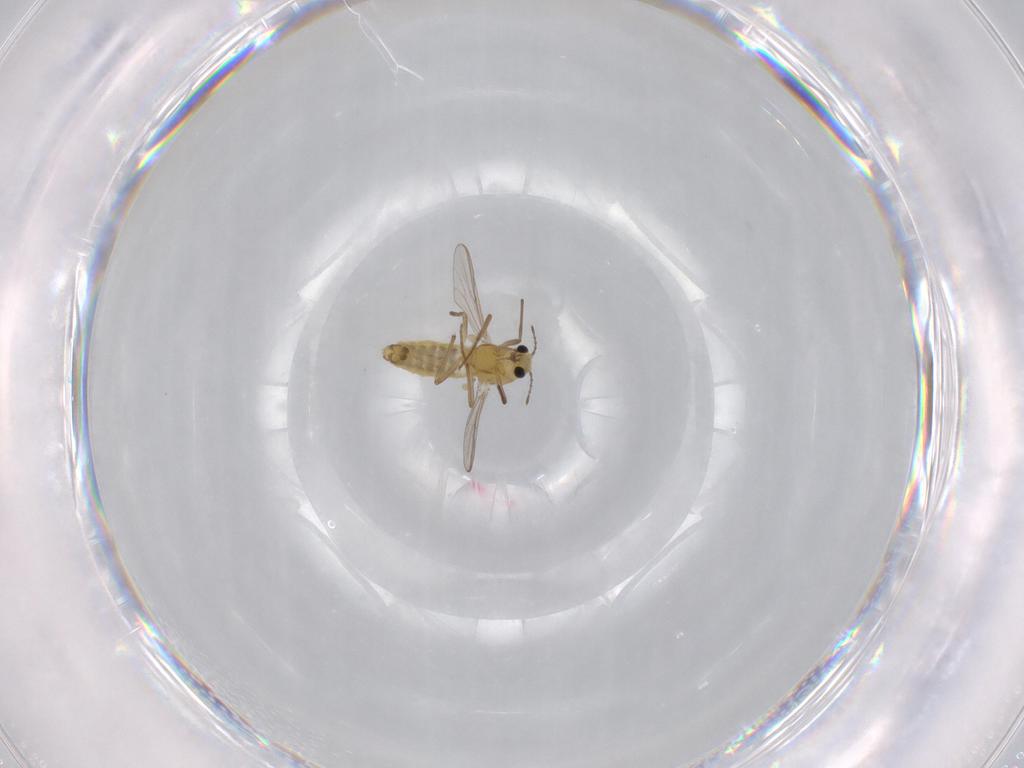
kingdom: Animalia
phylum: Arthropoda
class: Insecta
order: Diptera
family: Chironomidae
